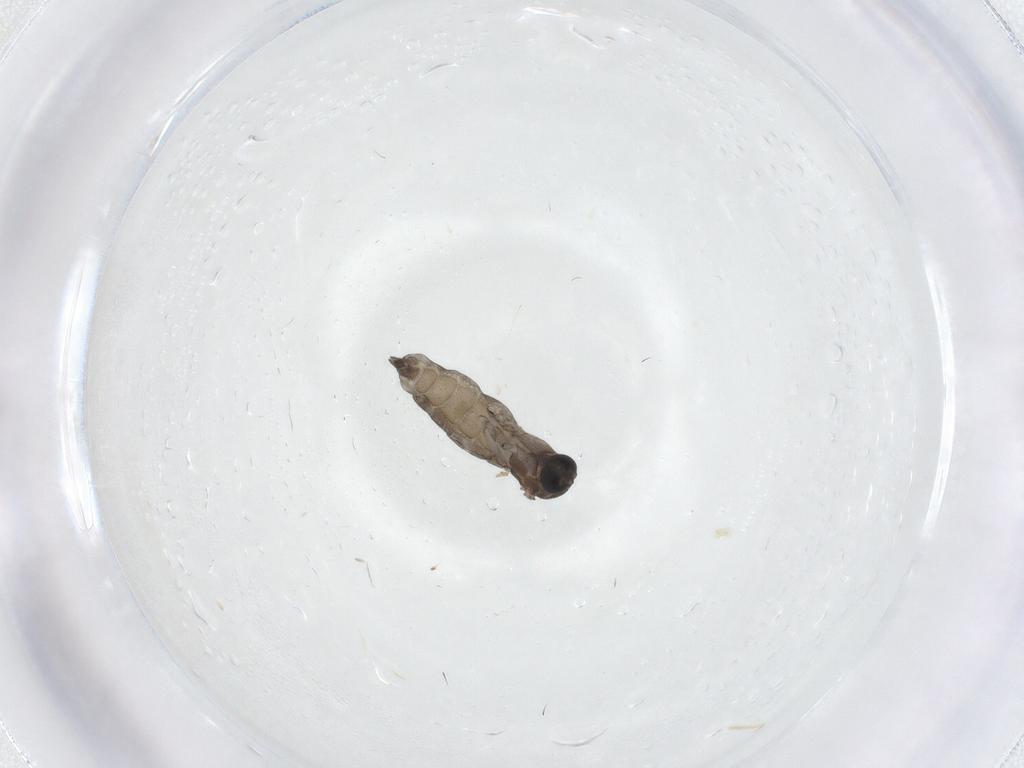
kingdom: Animalia
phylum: Arthropoda
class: Insecta
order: Diptera
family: Sciaridae
